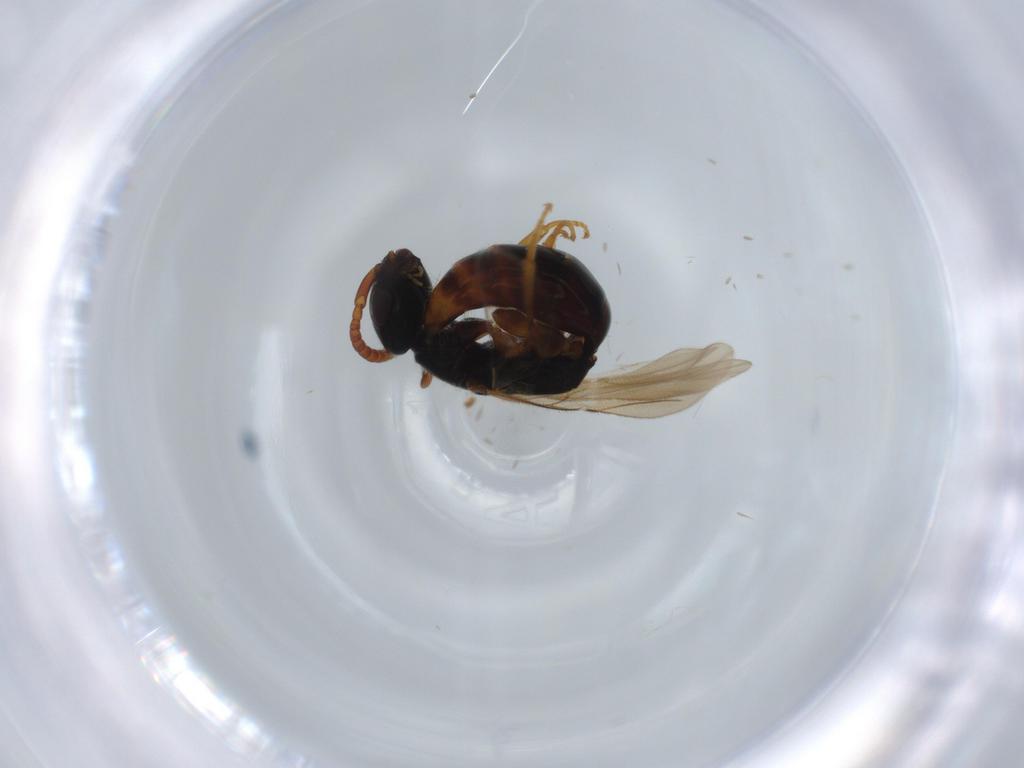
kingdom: Animalia
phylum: Arthropoda
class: Insecta
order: Hymenoptera
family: Bethylidae
